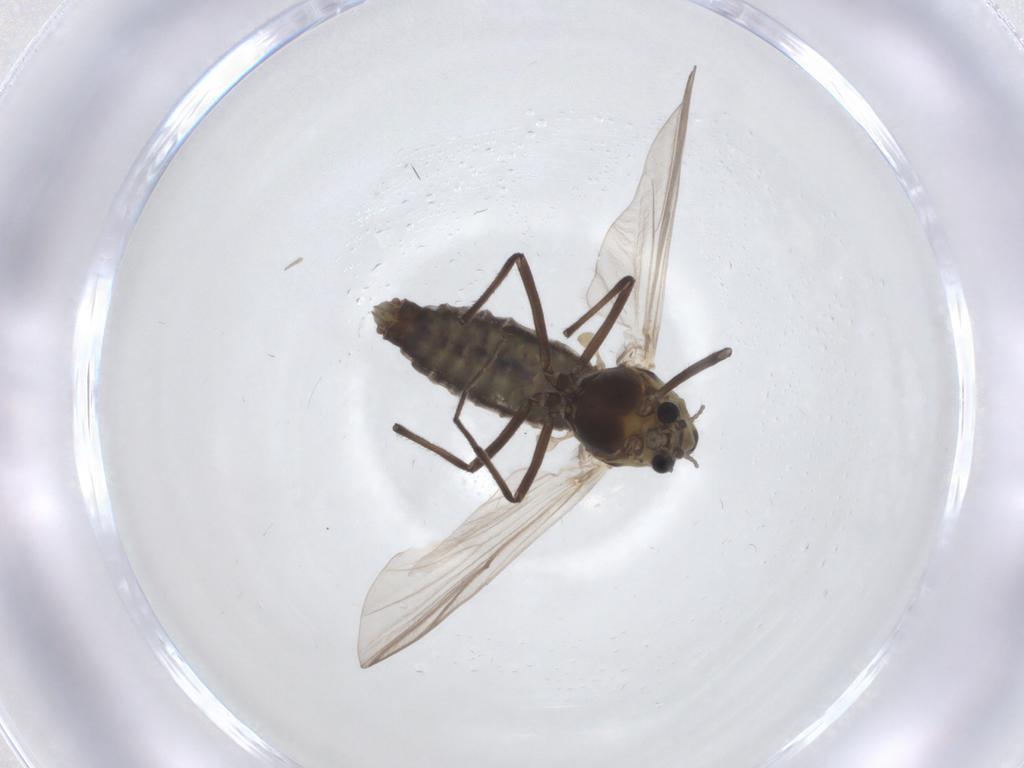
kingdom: Animalia
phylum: Arthropoda
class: Insecta
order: Diptera
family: Chironomidae
